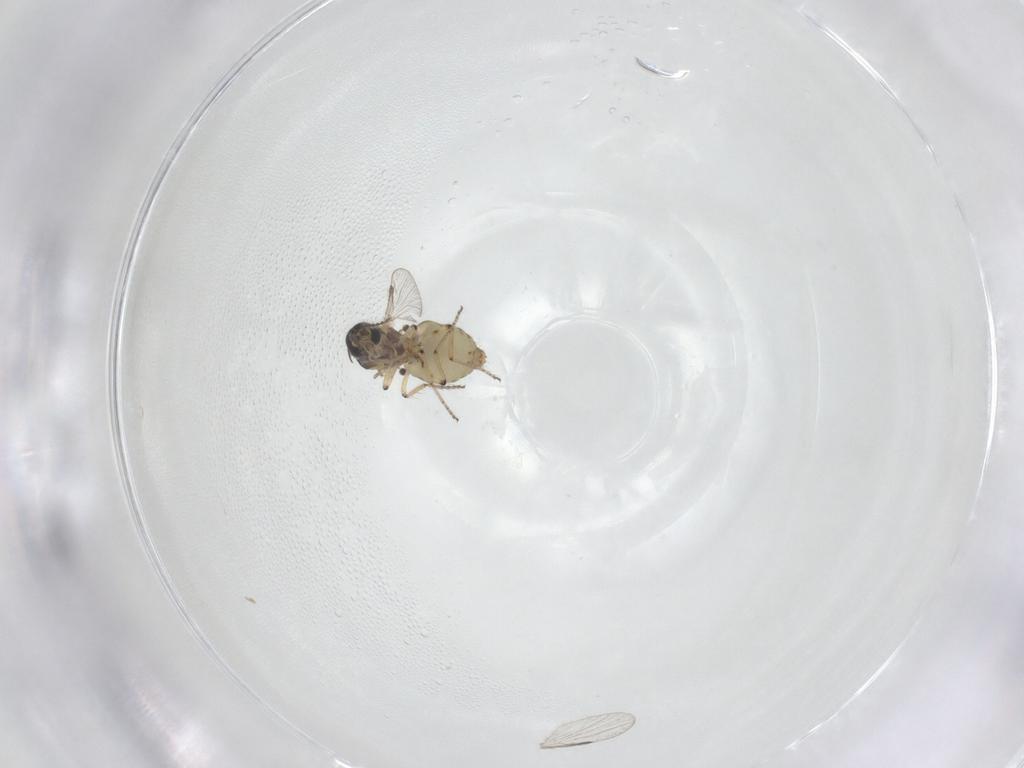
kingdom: Animalia
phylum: Arthropoda
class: Insecta
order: Diptera
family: Ceratopogonidae
